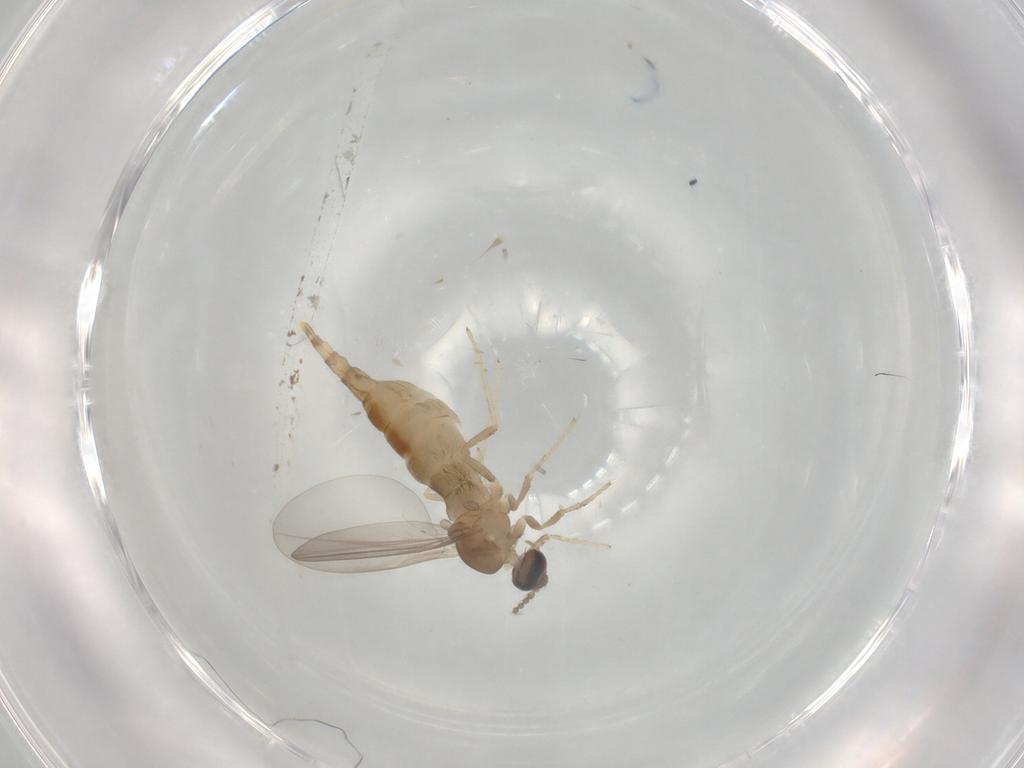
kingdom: Animalia
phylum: Arthropoda
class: Insecta
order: Diptera
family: Cecidomyiidae
